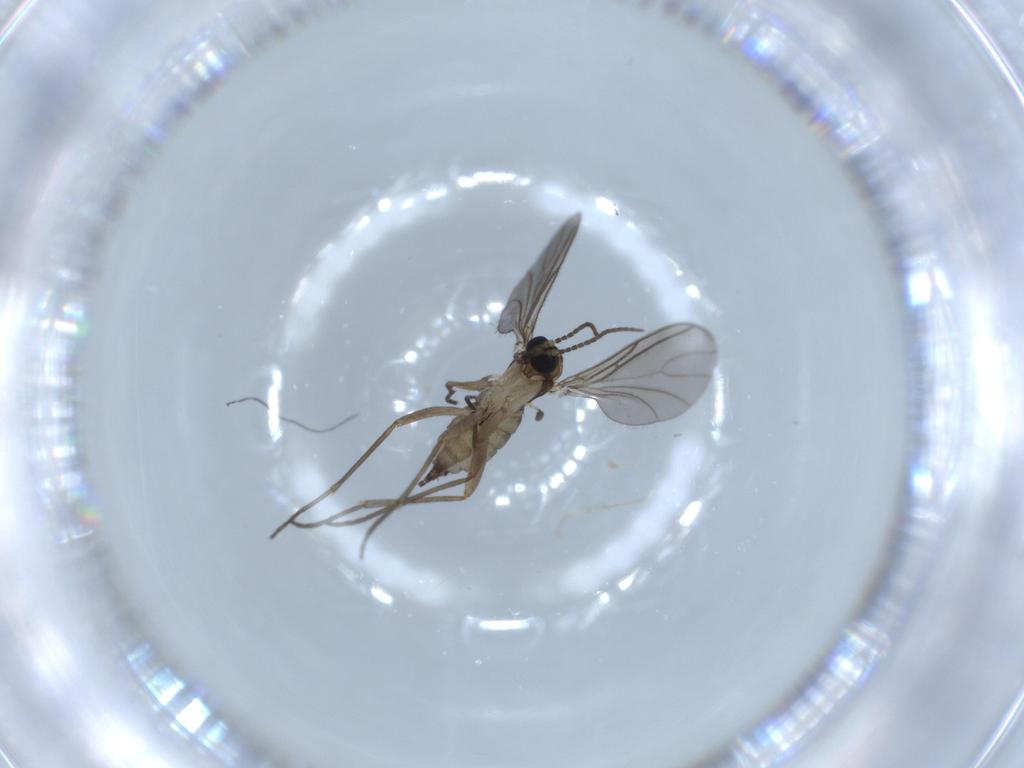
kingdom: Animalia
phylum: Arthropoda
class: Insecta
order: Diptera
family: Sciaridae
